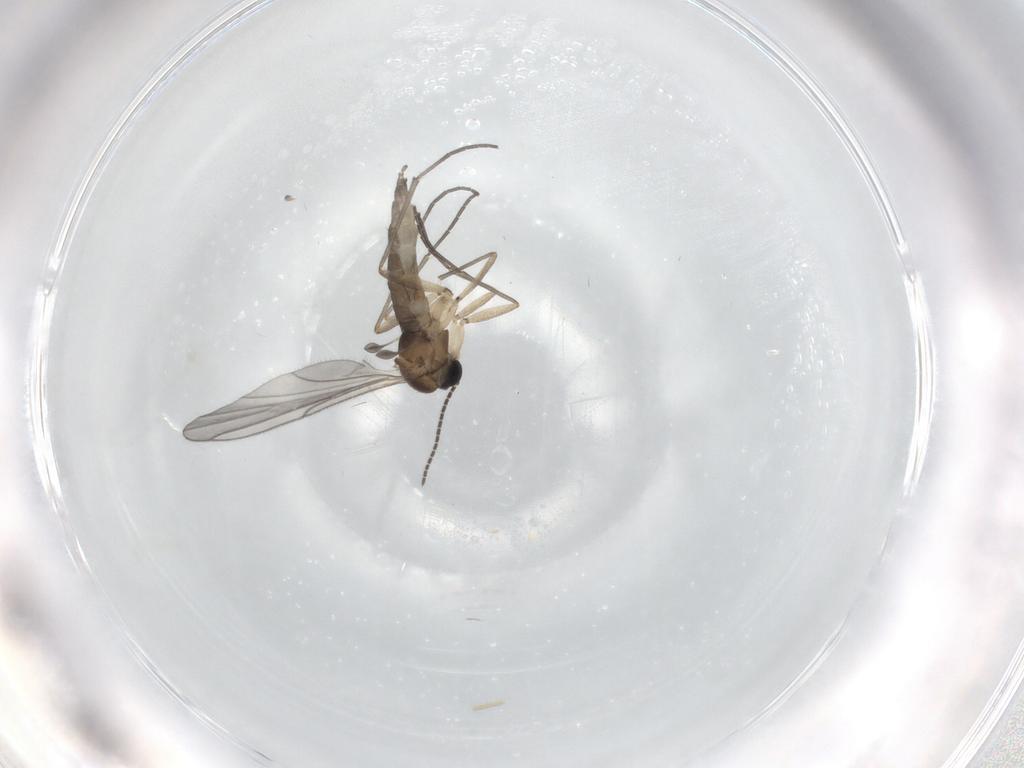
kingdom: Animalia
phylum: Arthropoda
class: Insecta
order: Diptera
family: Sciaridae
